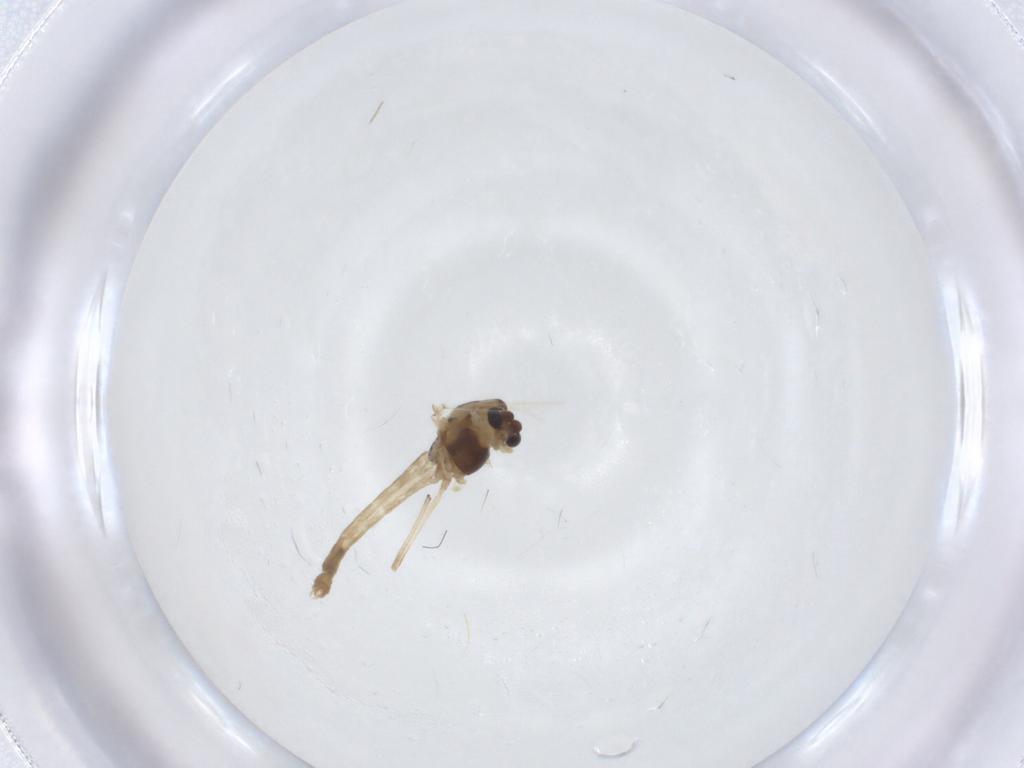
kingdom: Animalia
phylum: Arthropoda
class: Insecta
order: Diptera
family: Chironomidae
